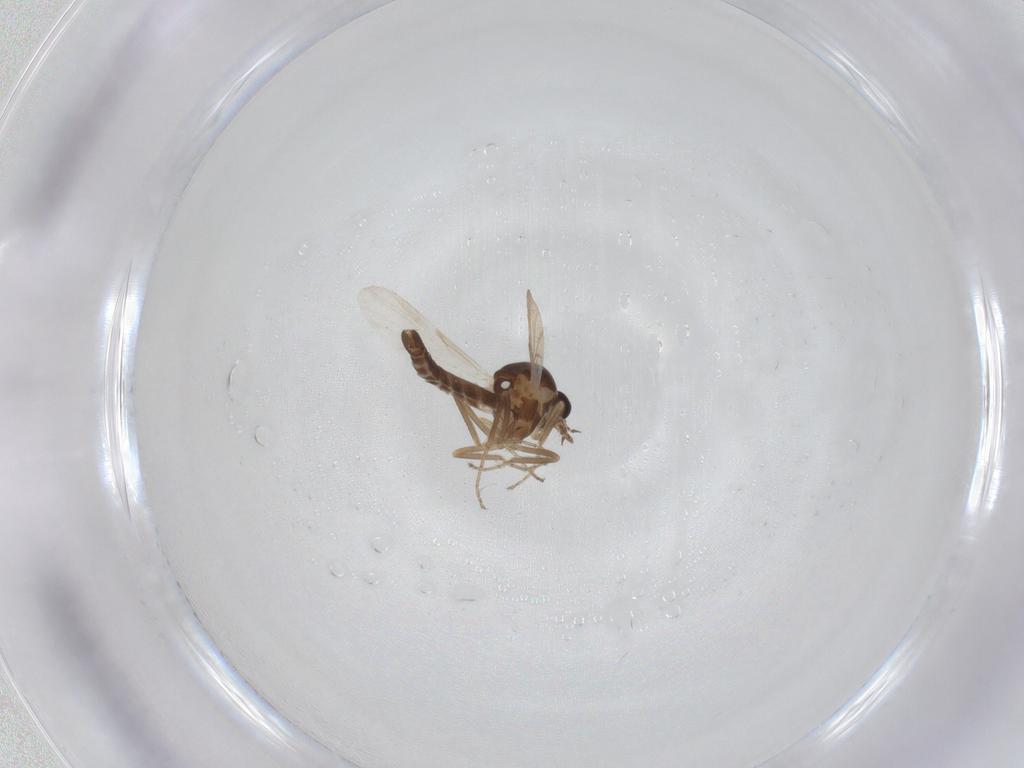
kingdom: Animalia
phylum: Arthropoda
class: Insecta
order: Diptera
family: Ceratopogonidae
